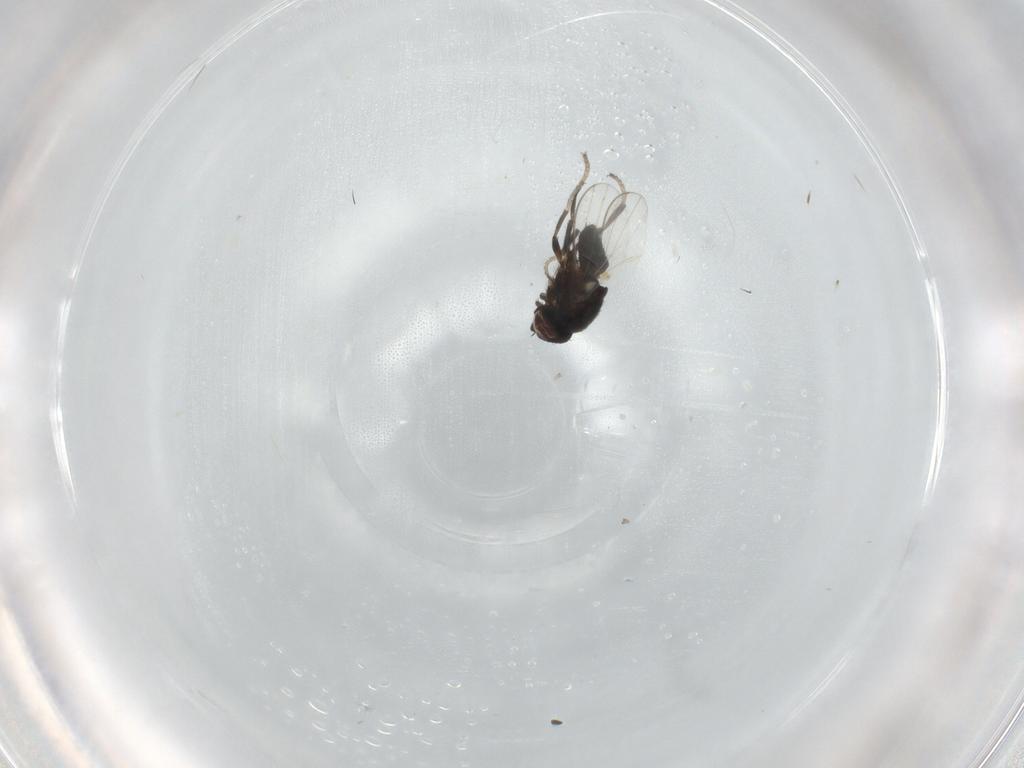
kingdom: Animalia
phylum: Arthropoda
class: Insecta
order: Diptera
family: Milichiidae
